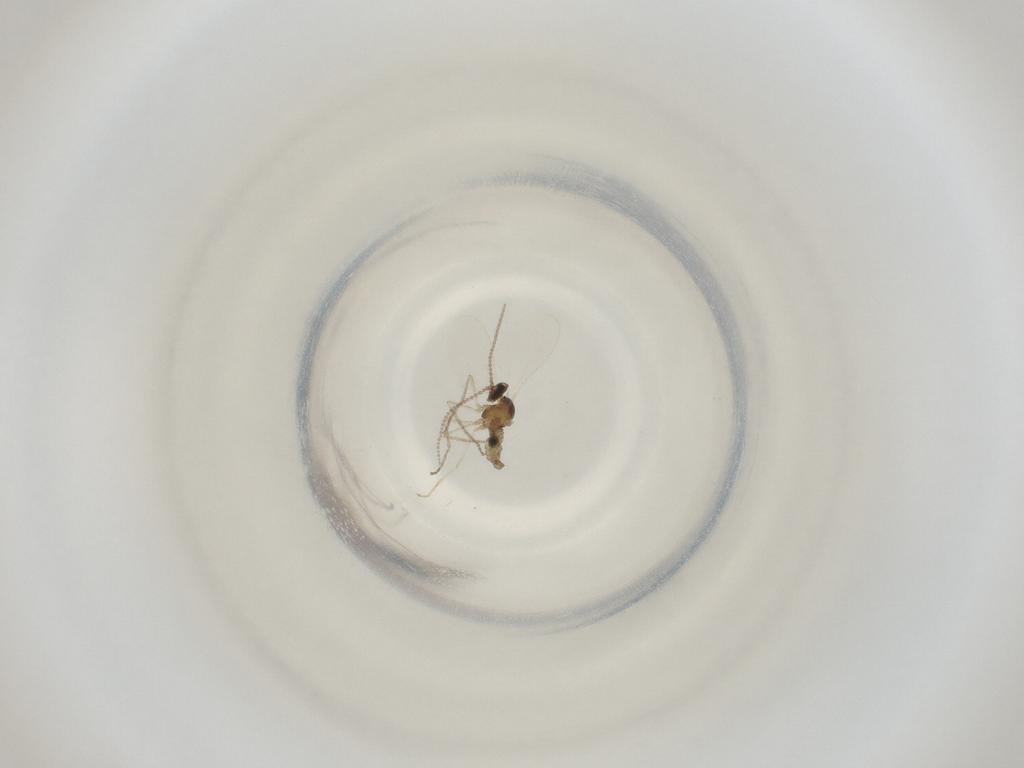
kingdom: Animalia
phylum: Arthropoda
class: Insecta
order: Diptera
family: Cecidomyiidae
